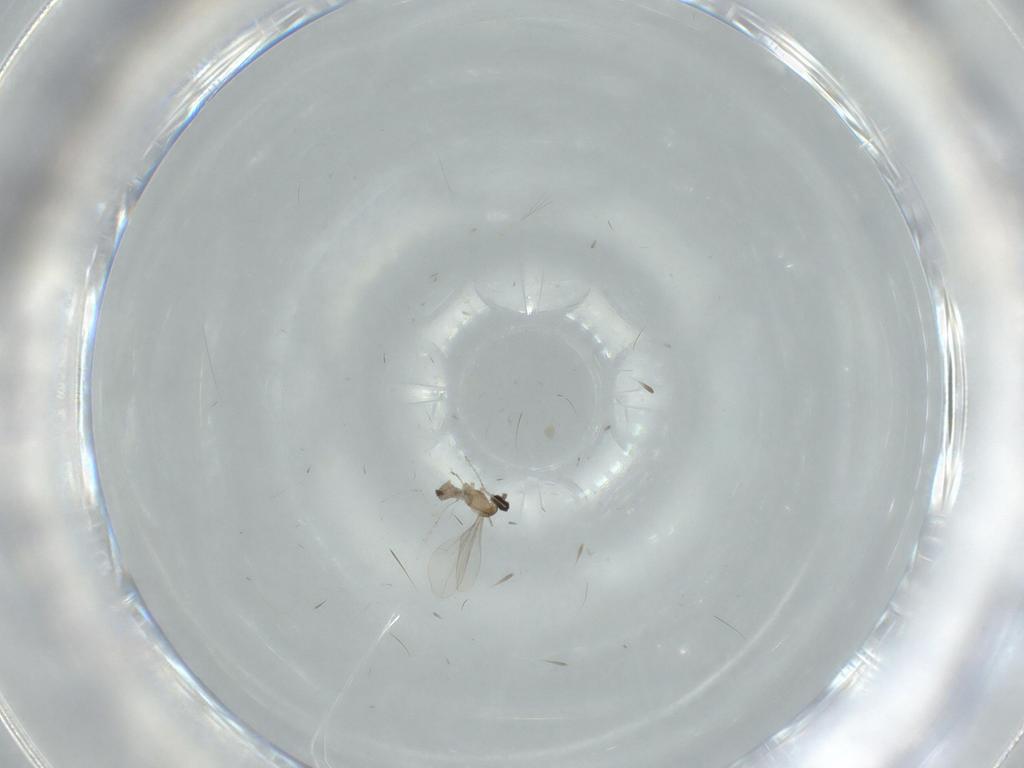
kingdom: Animalia
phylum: Arthropoda
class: Insecta
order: Diptera
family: Cecidomyiidae
